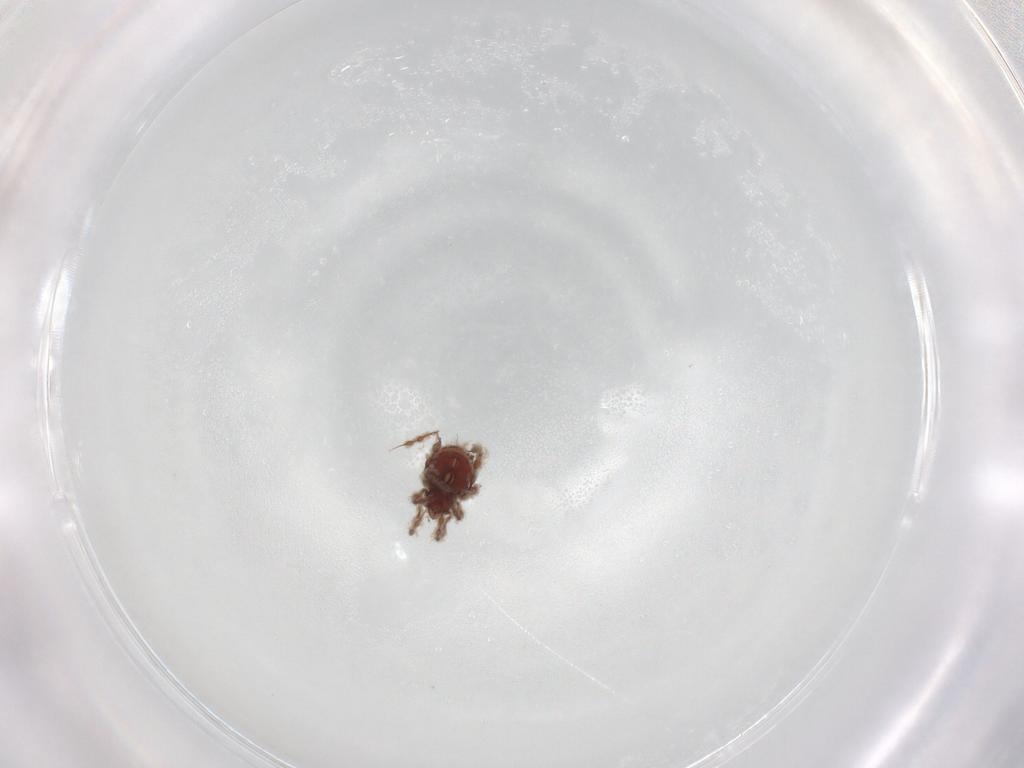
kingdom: Animalia
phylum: Arthropoda
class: Arachnida
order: Sarcoptiformes
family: Damaeidae
